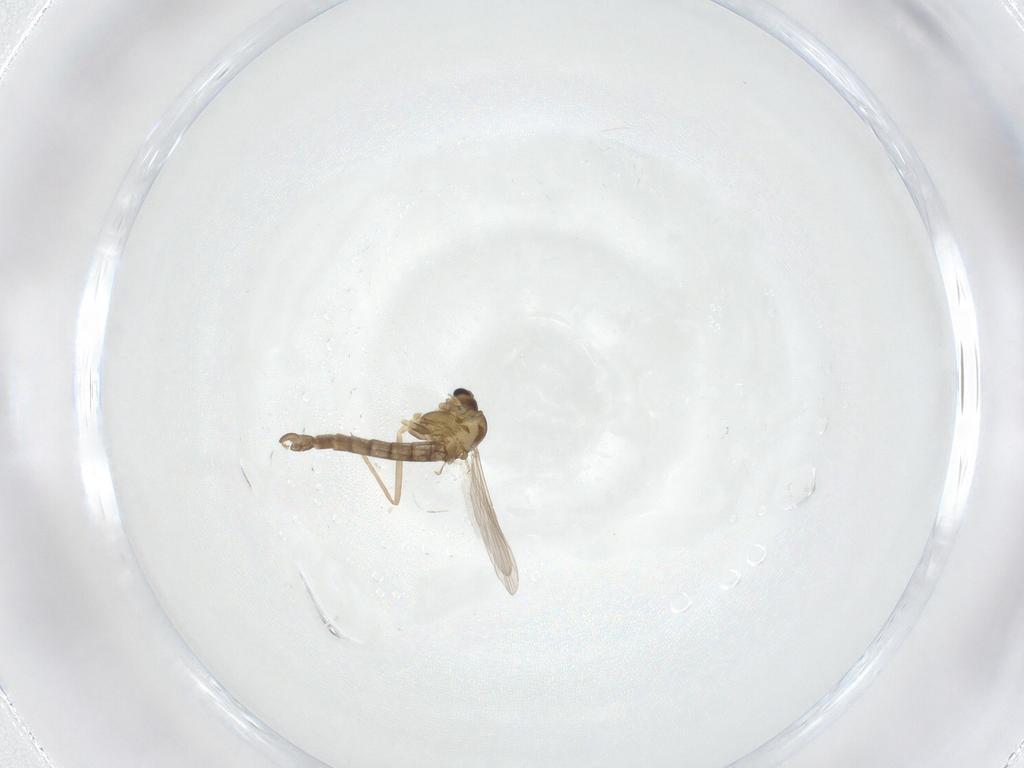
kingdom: Animalia
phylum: Arthropoda
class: Insecta
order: Diptera
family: Chironomidae
